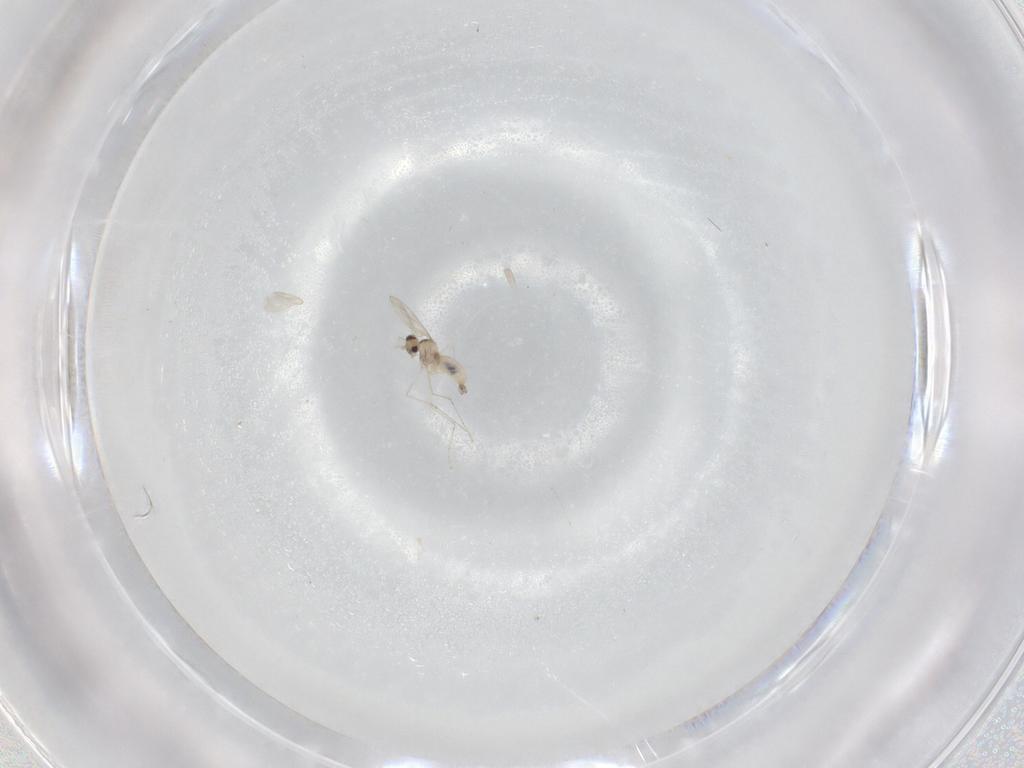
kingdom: Animalia
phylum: Arthropoda
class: Insecta
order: Diptera
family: Cecidomyiidae
